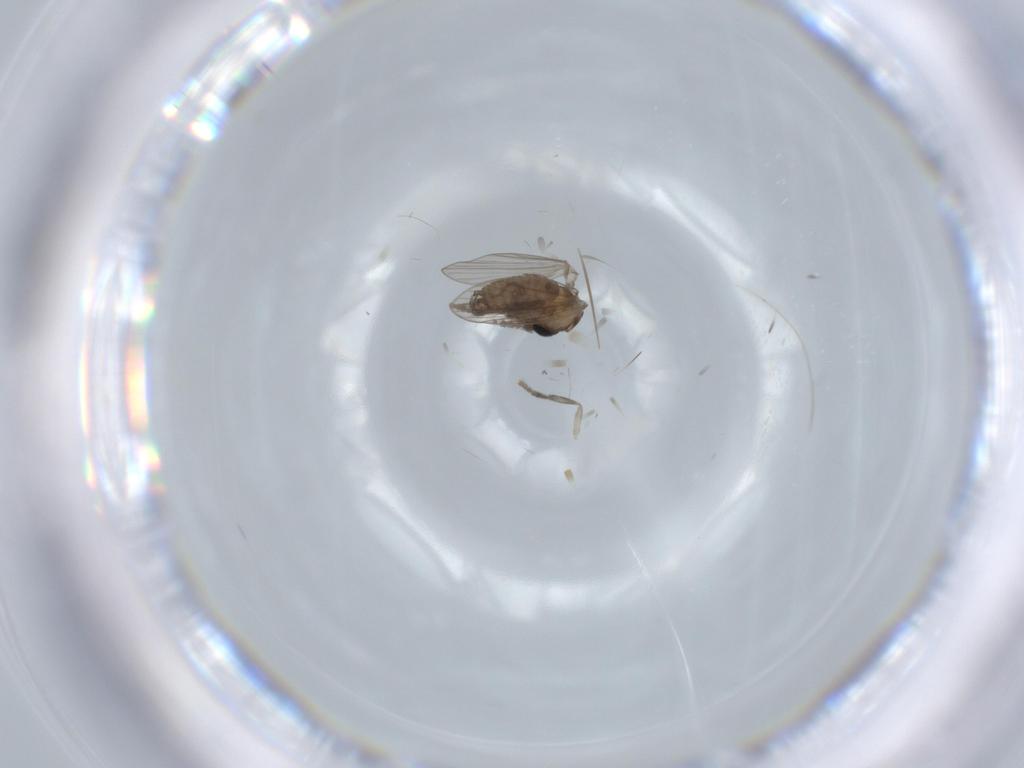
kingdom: Animalia
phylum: Arthropoda
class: Insecta
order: Diptera
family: Psychodidae
